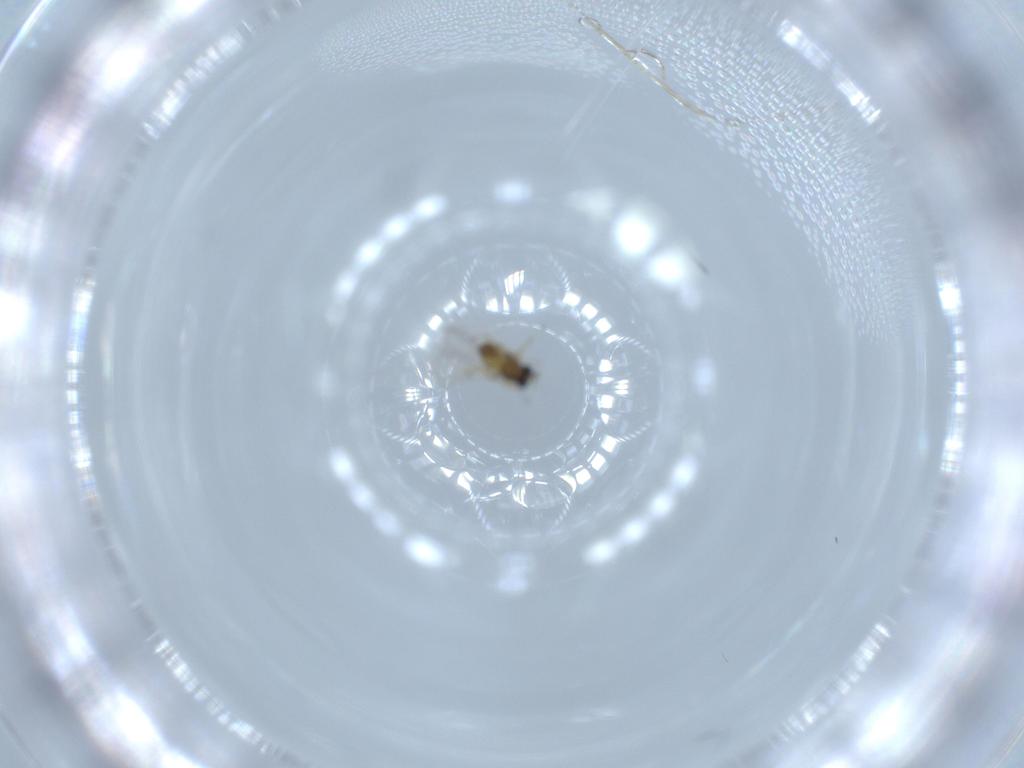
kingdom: Animalia
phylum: Arthropoda
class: Insecta
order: Hymenoptera
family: Trichogrammatidae
